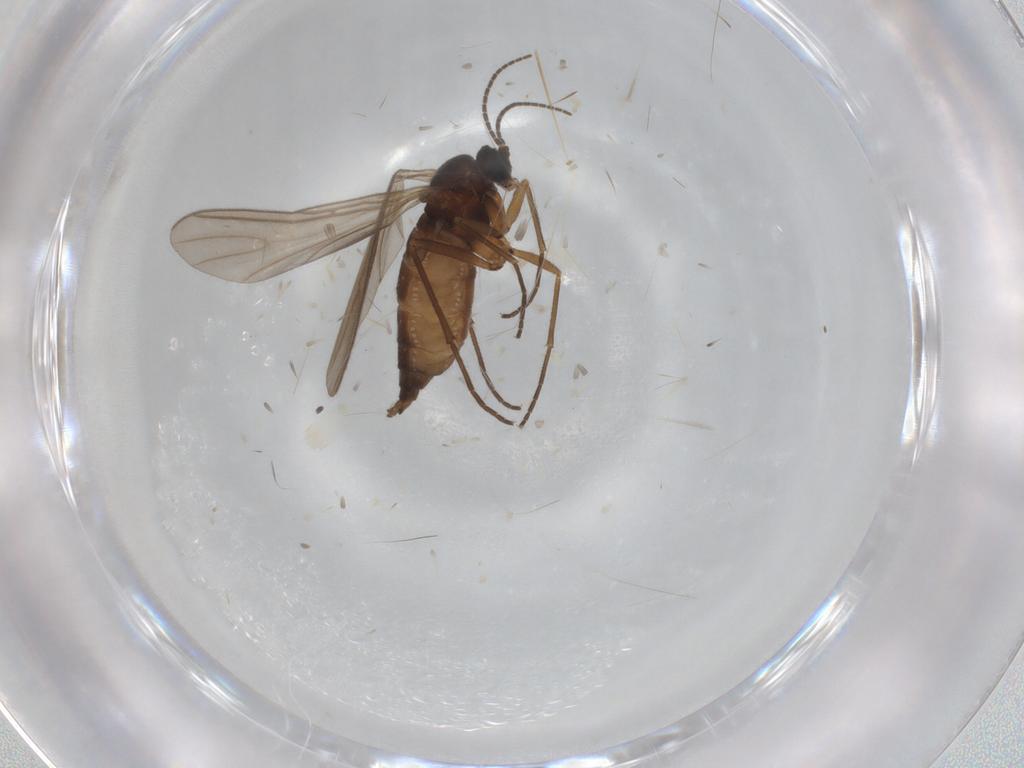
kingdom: Animalia
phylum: Arthropoda
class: Insecta
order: Diptera
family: Sciaridae
